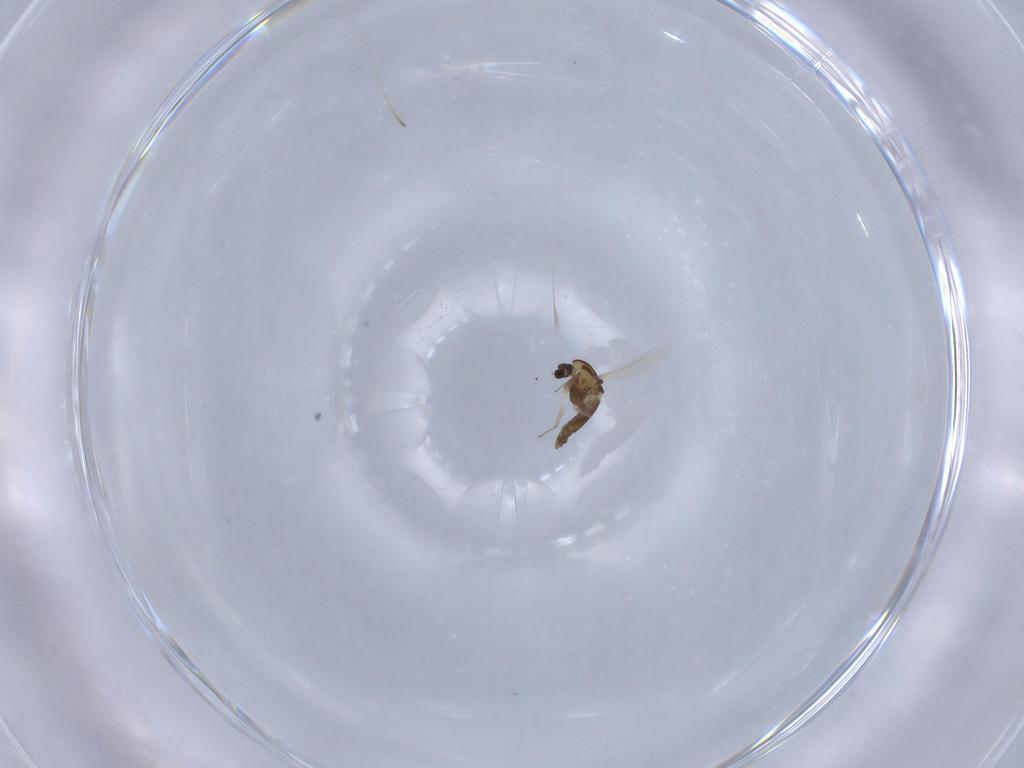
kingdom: Animalia
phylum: Arthropoda
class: Insecta
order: Diptera
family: Chironomidae
